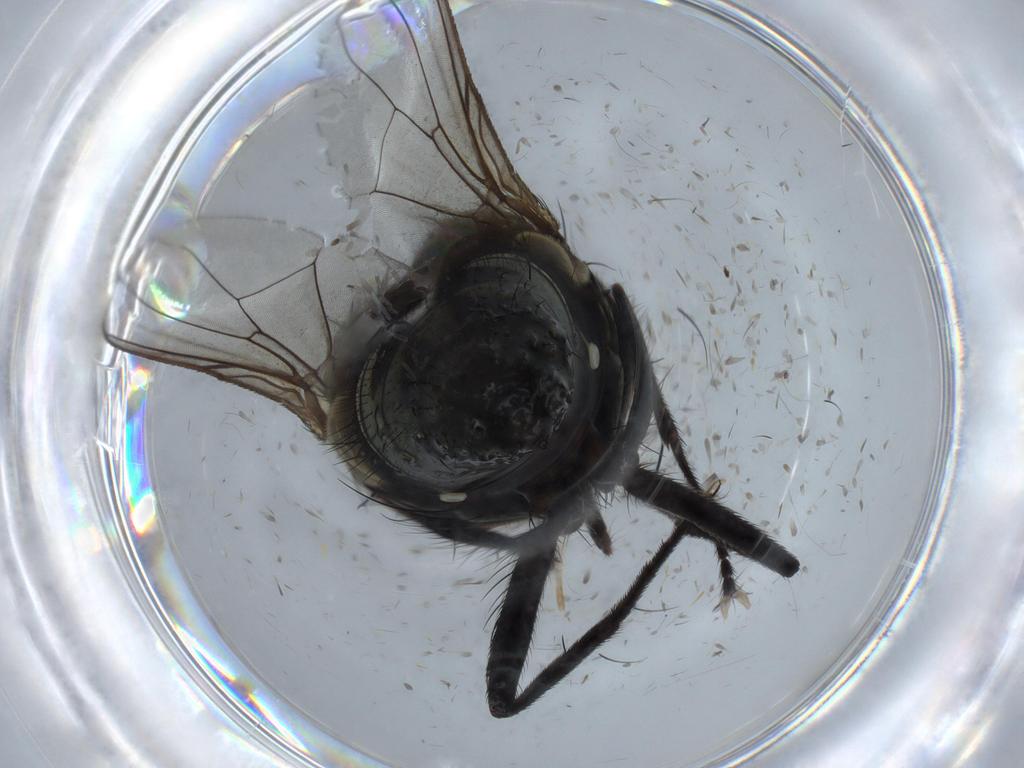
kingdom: Animalia
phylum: Arthropoda
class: Insecta
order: Diptera
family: Muscidae
